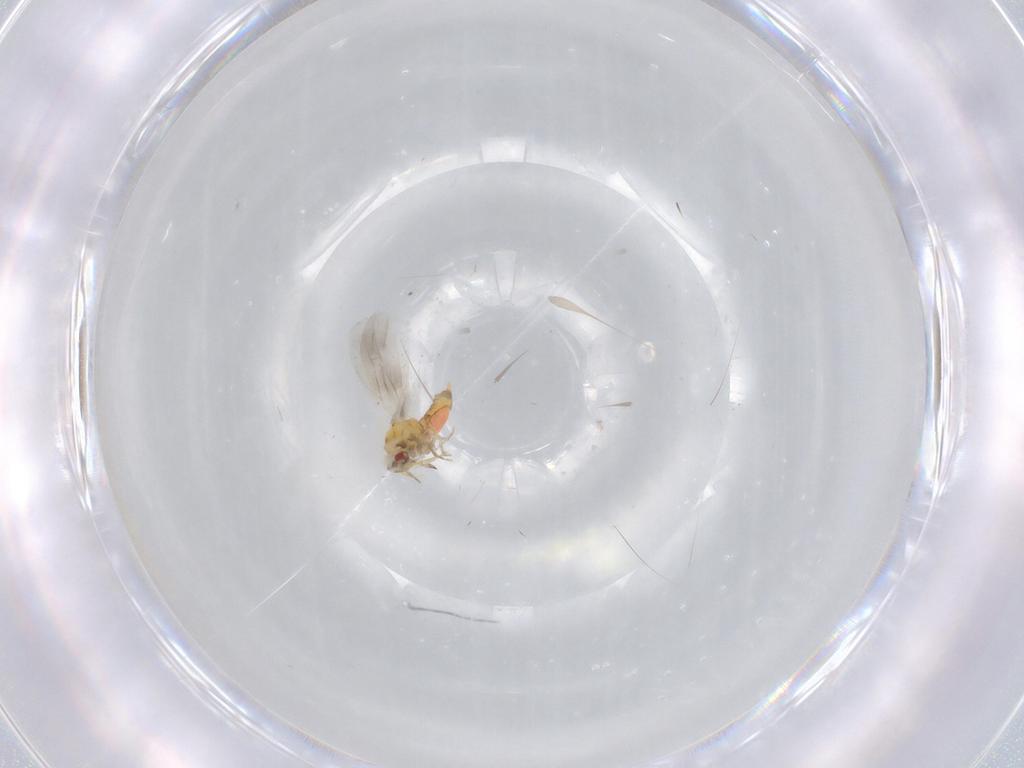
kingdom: Animalia
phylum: Arthropoda
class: Insecta
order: Hemiptera
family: Aleyrodidae
